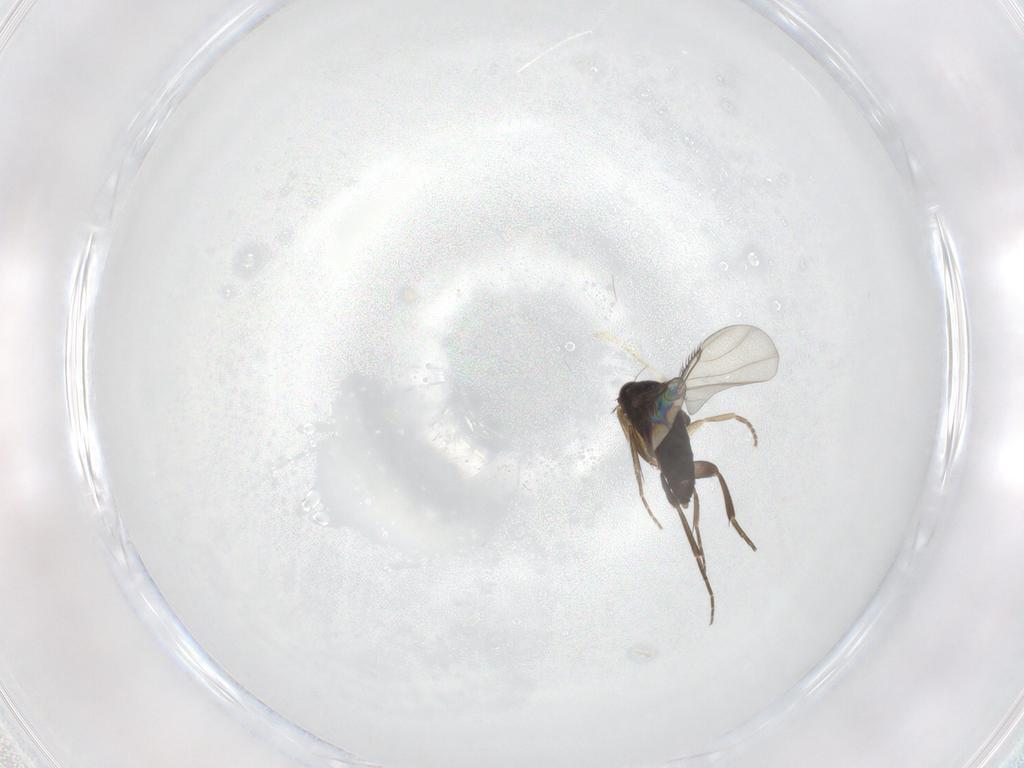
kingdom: Animalia
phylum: Arthropoda
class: Insecta
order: Diptera
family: Phoridae
